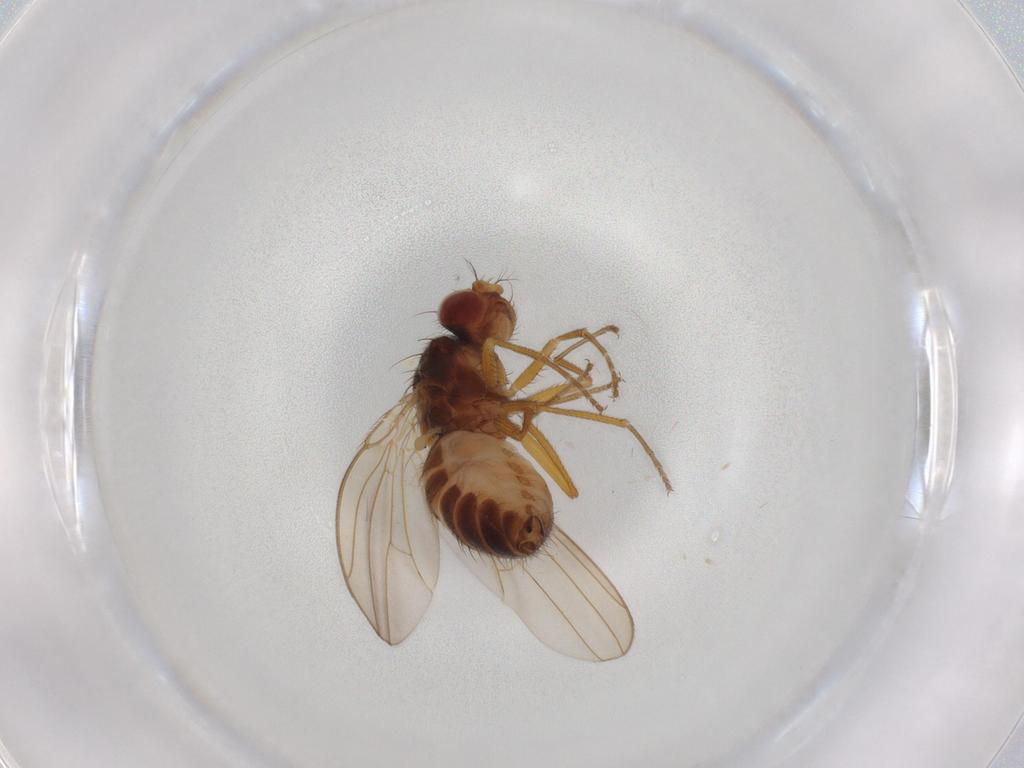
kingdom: Animalia
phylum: Arthropoda
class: Insecta
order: Diptera
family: Drosophilidae
